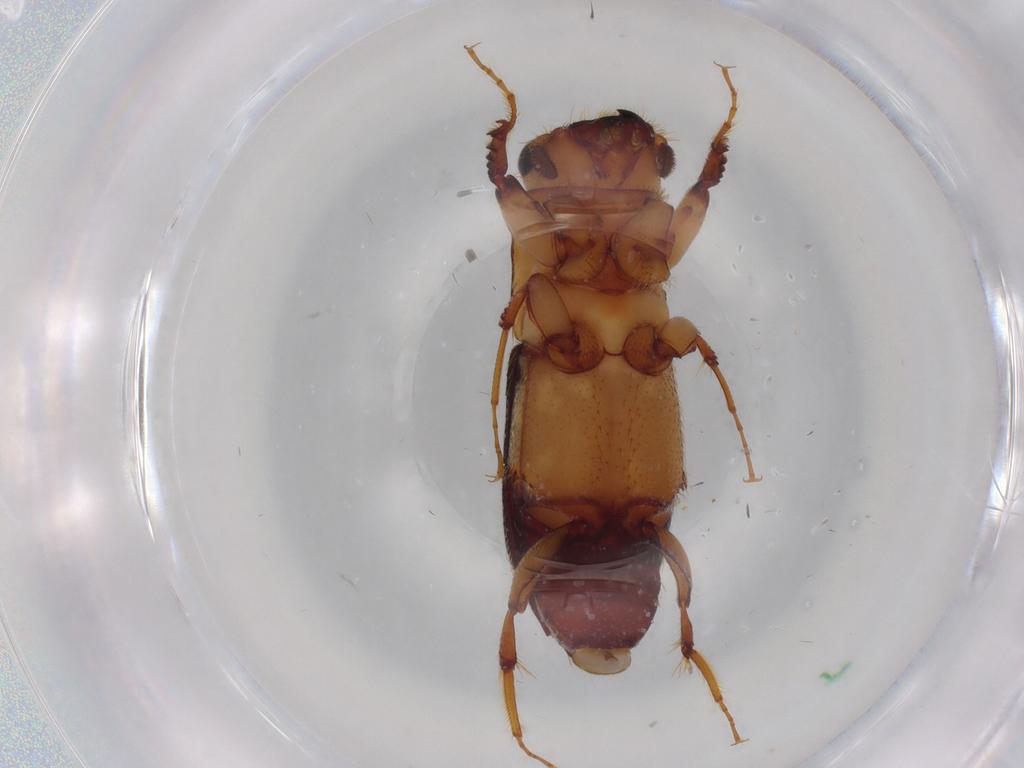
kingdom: Animalia
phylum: Arthropoda
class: Insecta
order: Coleoptera
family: Curculionidae
